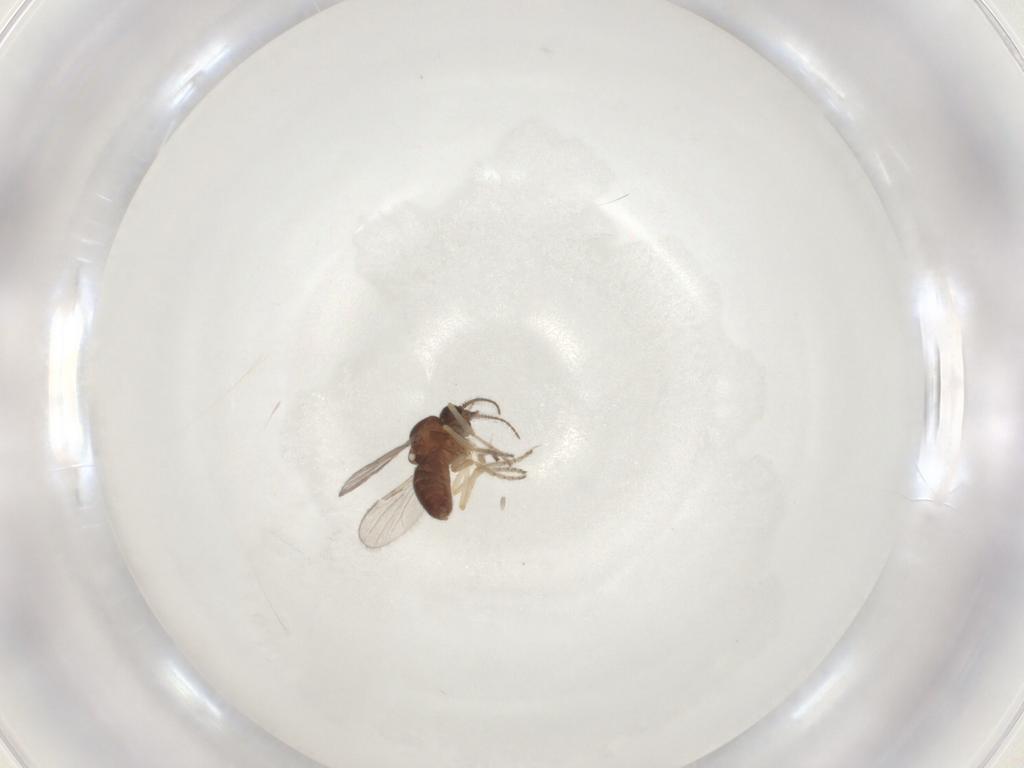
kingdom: Animalia
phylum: Arthropoda
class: Insecta
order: Diptera
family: Ceratopogonidae
